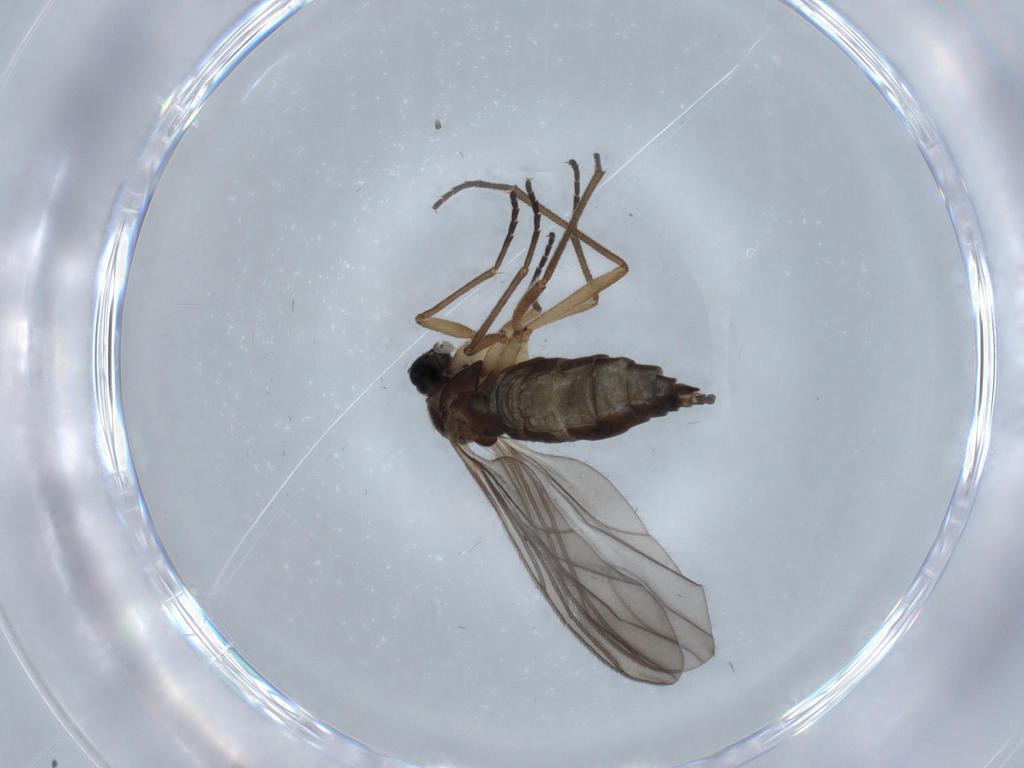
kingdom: Animalia
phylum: Arthropoda
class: Insecta
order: Diptera
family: Sciaridae
